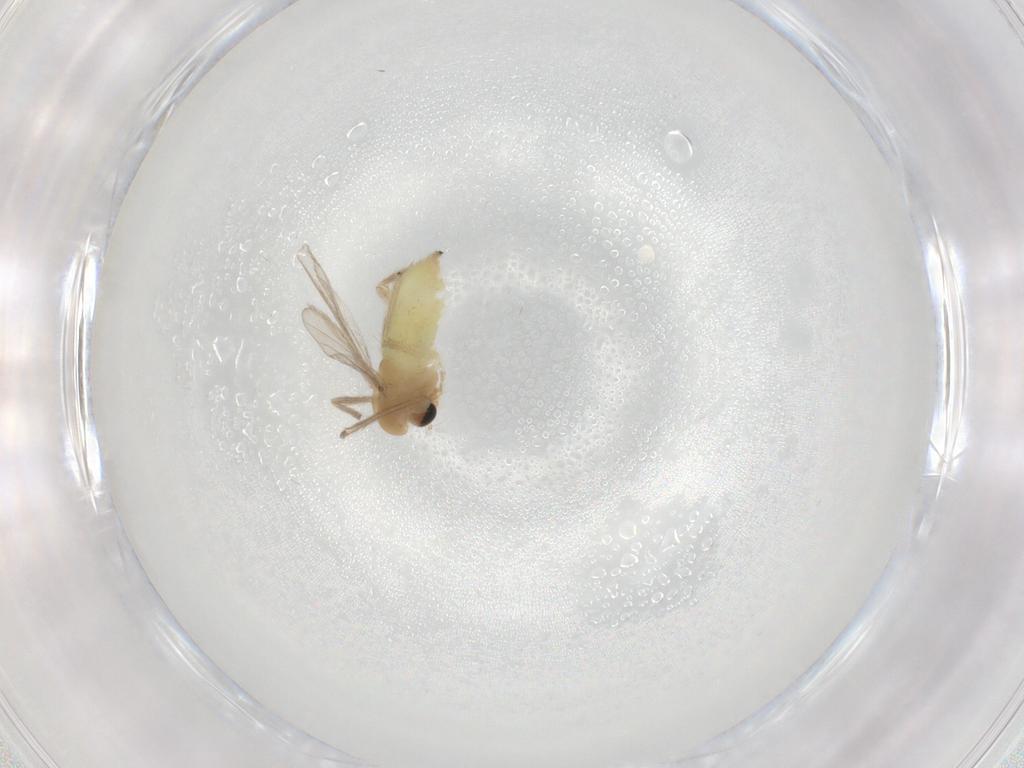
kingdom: Animalia
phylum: Arthropoda
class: Insecta
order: Diptera
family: Chironomidae
